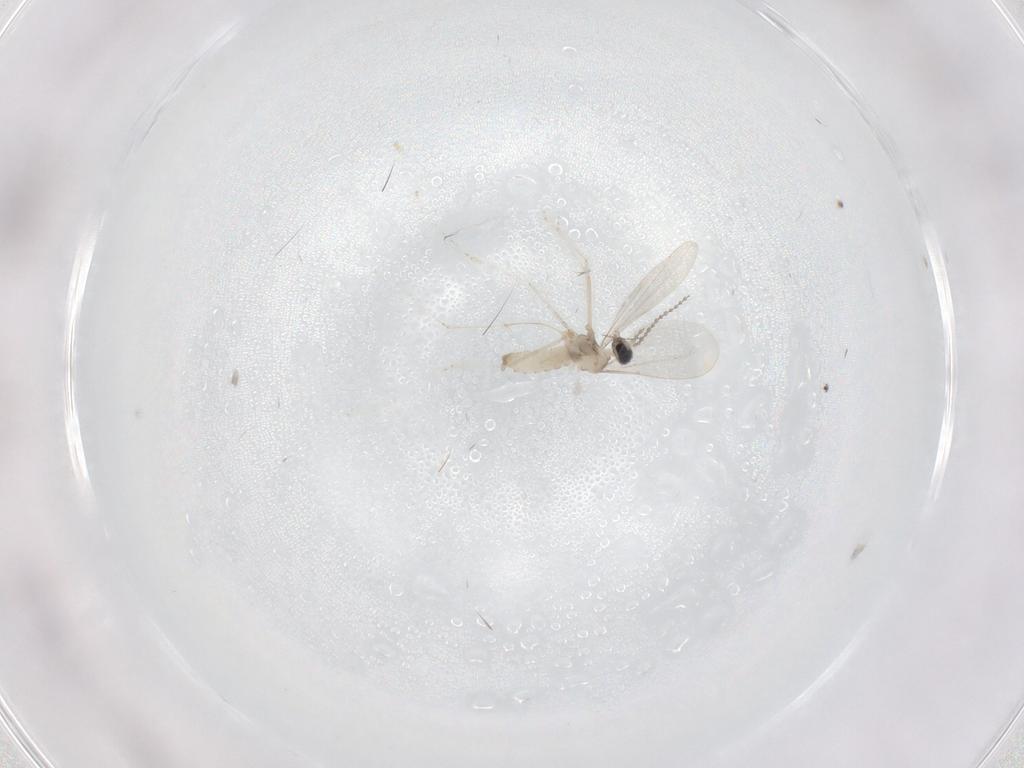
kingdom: Animalia
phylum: Arthropoda
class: Insecta
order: Diptera
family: Cecidomyiidae
